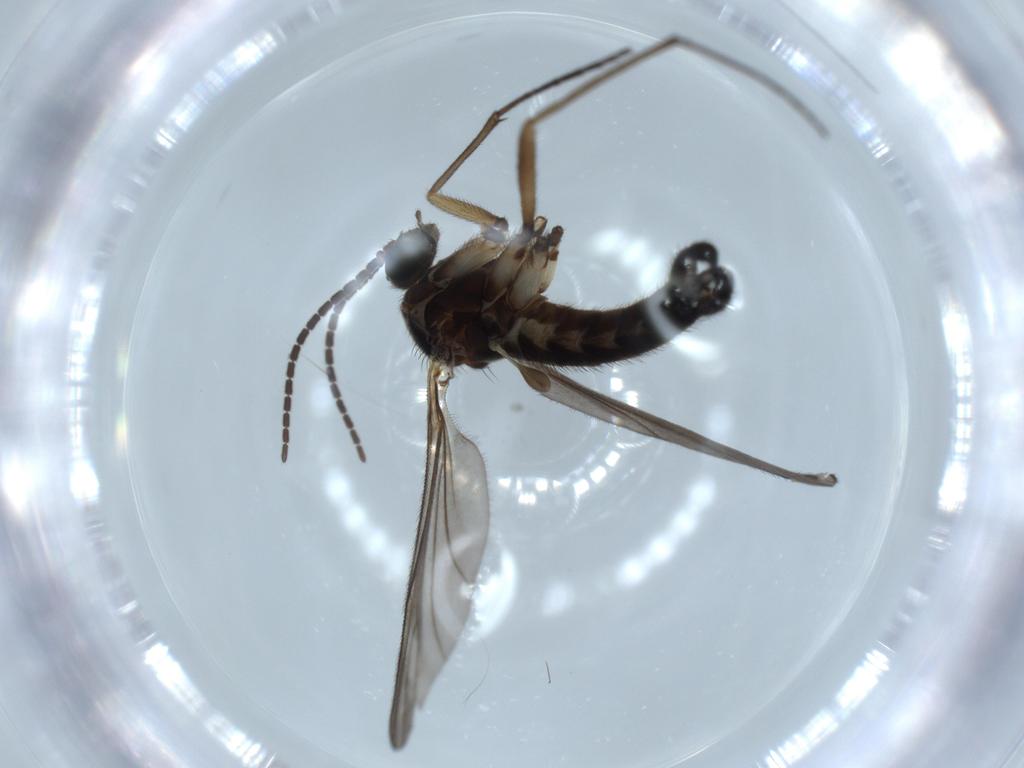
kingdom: Animalia
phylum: Arthropoda
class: Insecta
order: Diptera
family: Sciaridae
